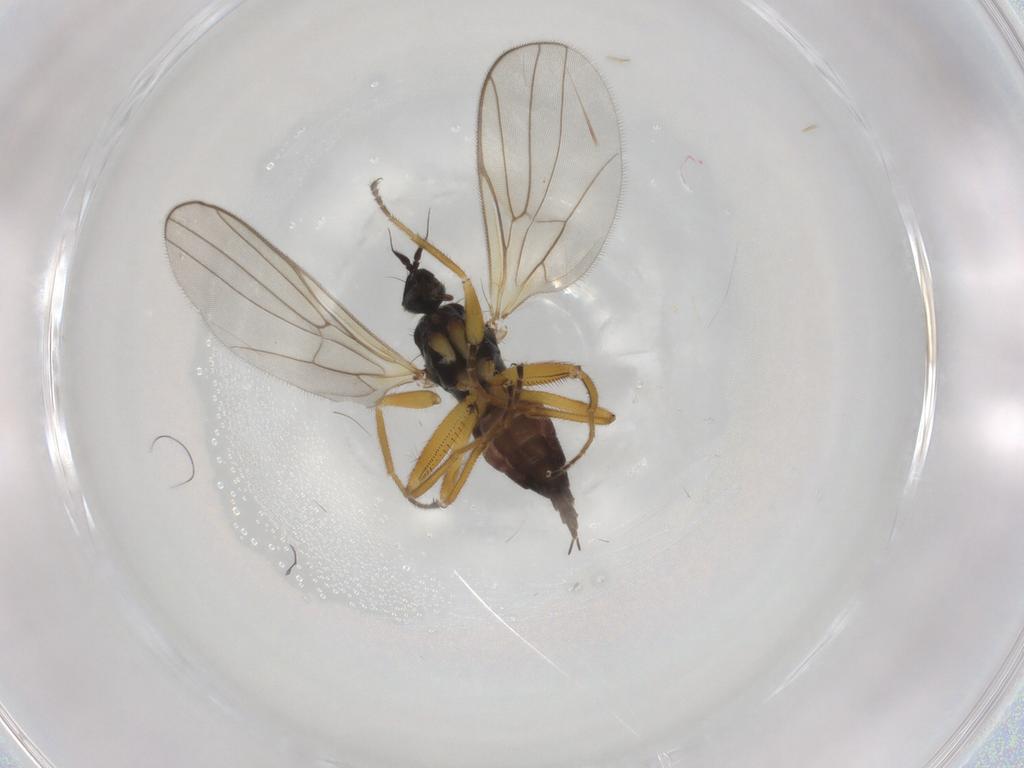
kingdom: Animalia
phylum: Arthropoda
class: Insecta
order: Diptera
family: Hybotidae
